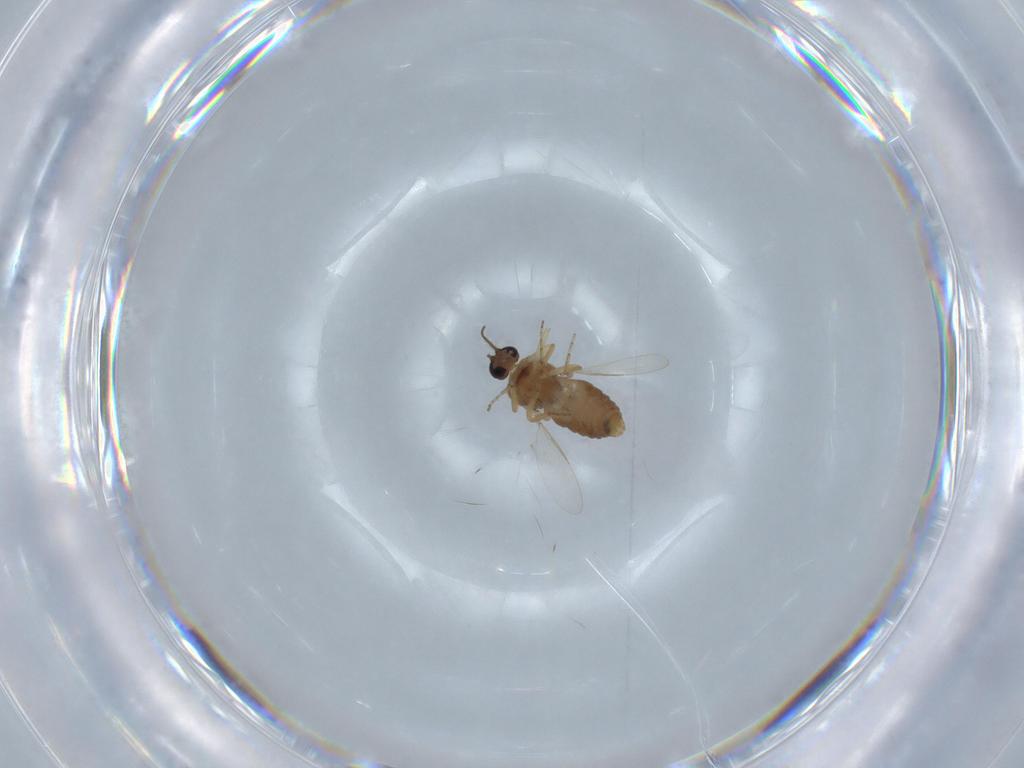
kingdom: Animalia
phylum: Arthropoda
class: Insecta
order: Diptera
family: Ceratopogonidae
